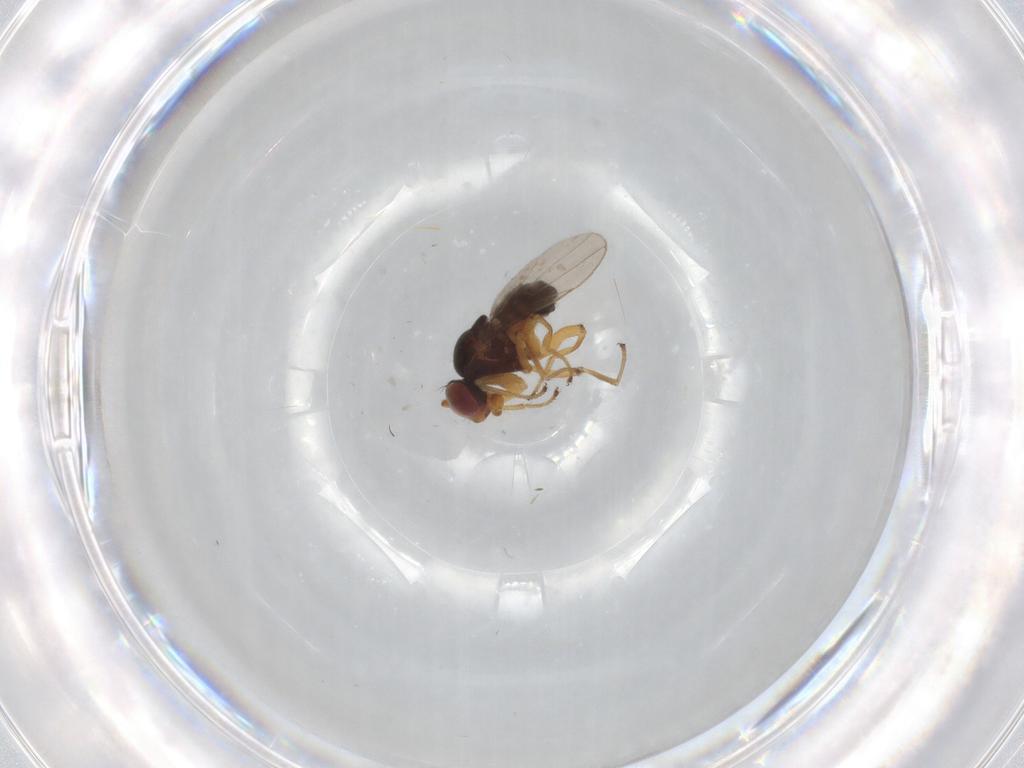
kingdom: Animalia
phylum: Arthropoda
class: Insecta
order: Diptera
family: Ephydridae
